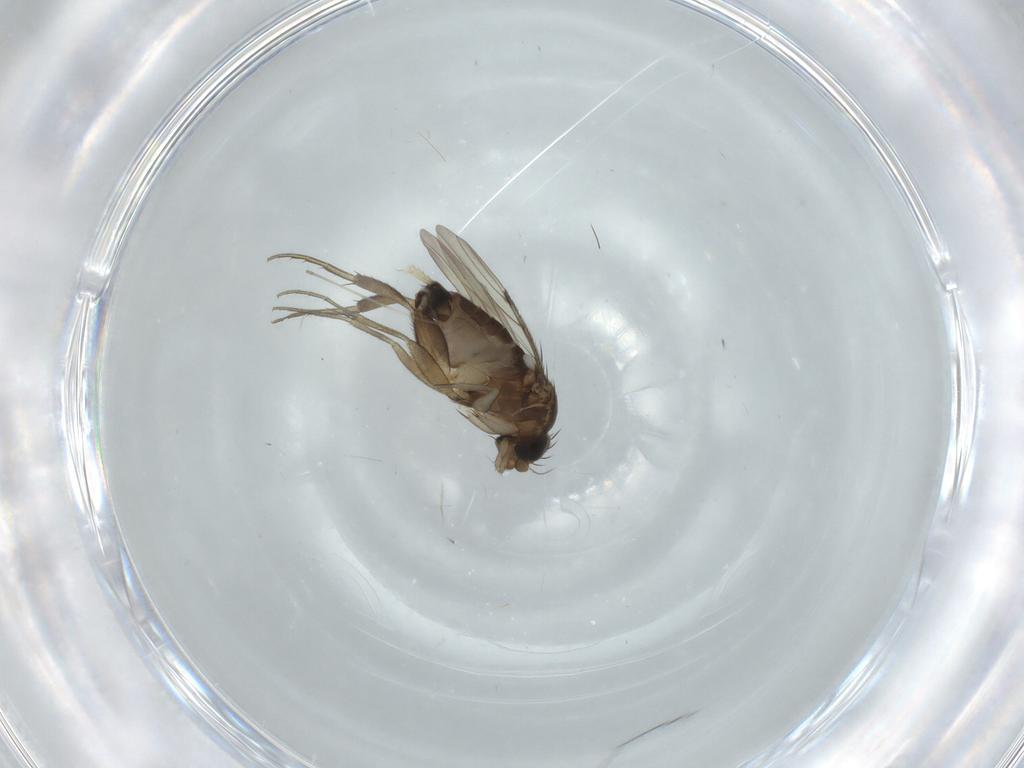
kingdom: Animalia
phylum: Arthropoda
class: Insecta
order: Diptera
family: Phoridae
